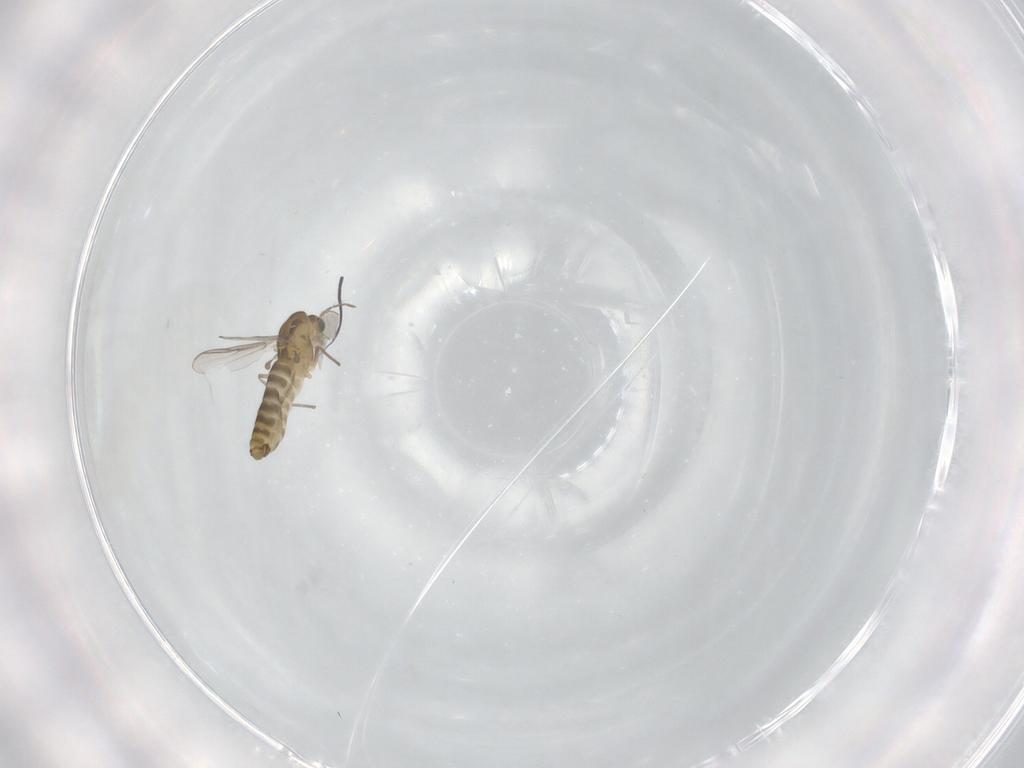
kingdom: Animalia
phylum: Arthropoda
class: Insecta
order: Diptera
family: Chironomidae
